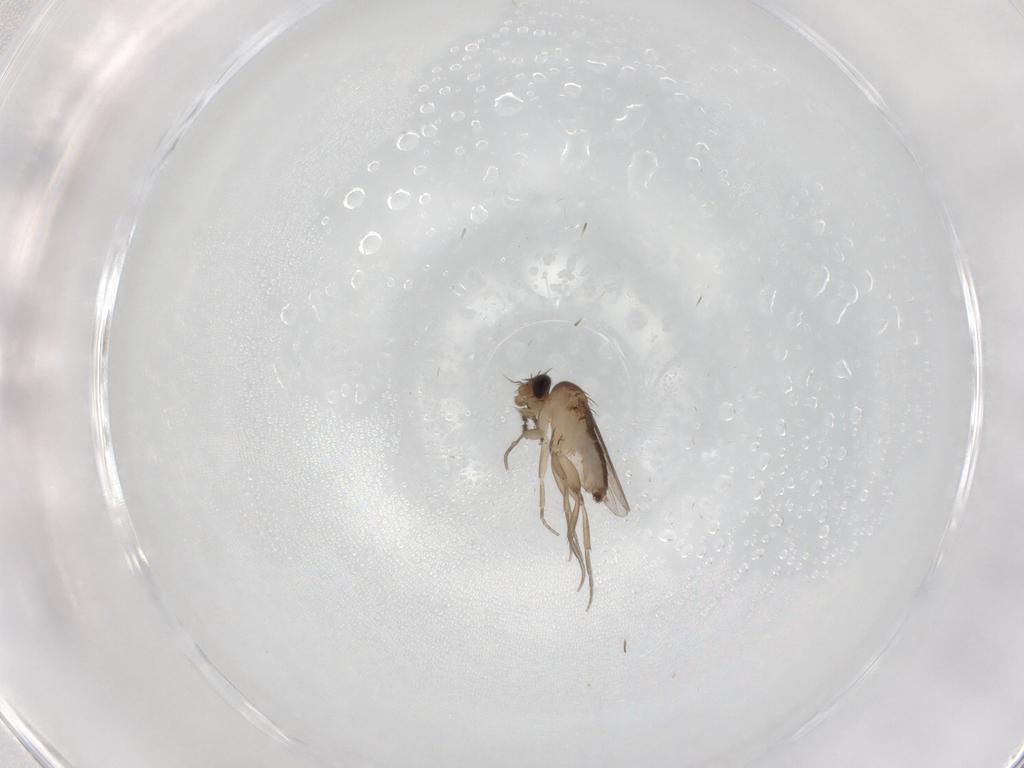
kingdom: Animalia
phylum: Arthropoda
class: Insecta
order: Diptera
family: Phoridae
